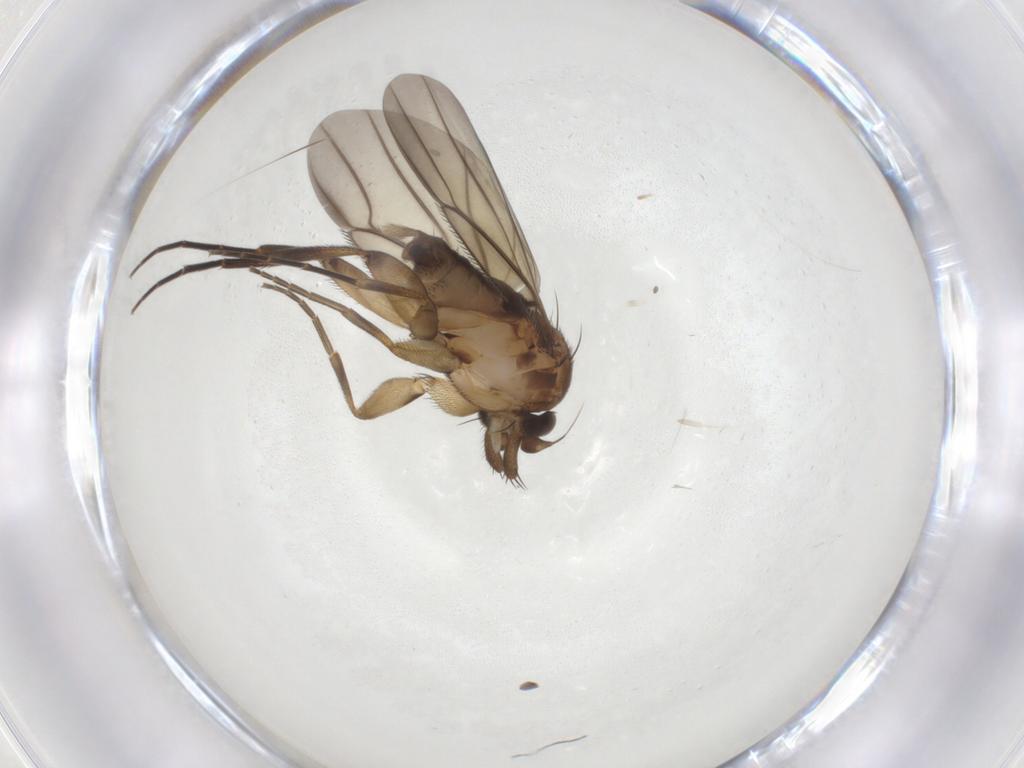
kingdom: Animalia
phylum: Arthropoda
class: Insecta
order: Diptera
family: Phoridae
